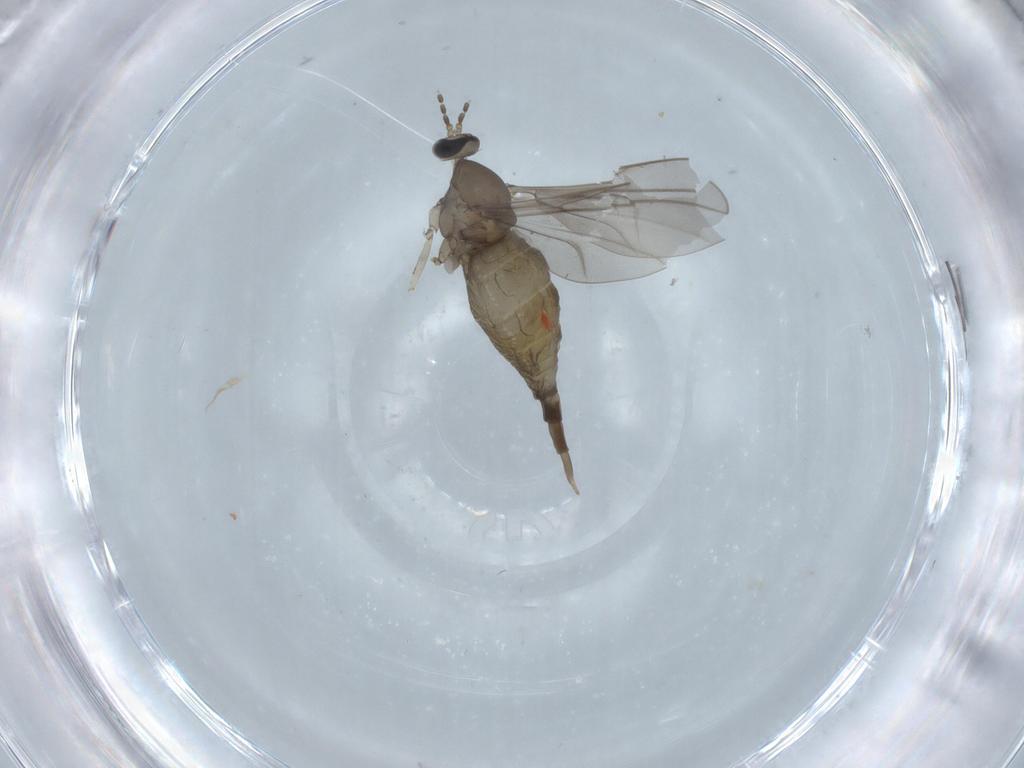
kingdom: Animalia
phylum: Arthropoda
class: Insecta
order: Diptera
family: Cecidomyiidae
